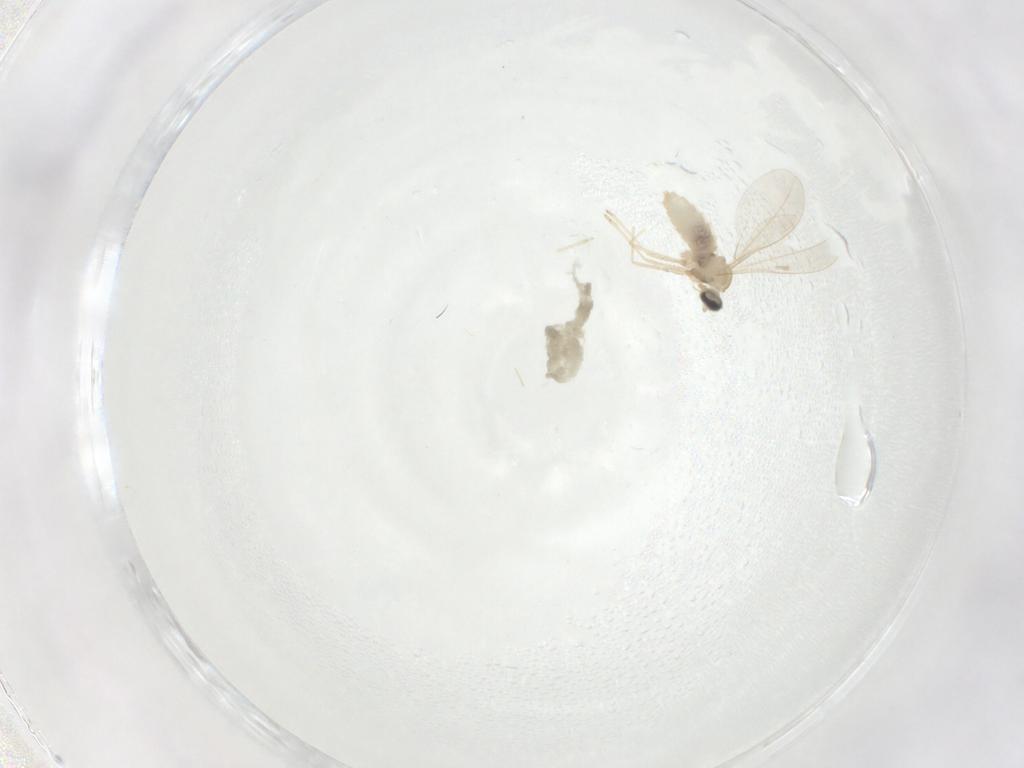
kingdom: Animalia
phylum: Arthropoda
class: Insecta
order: Diptera
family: Cecidomyiidae
